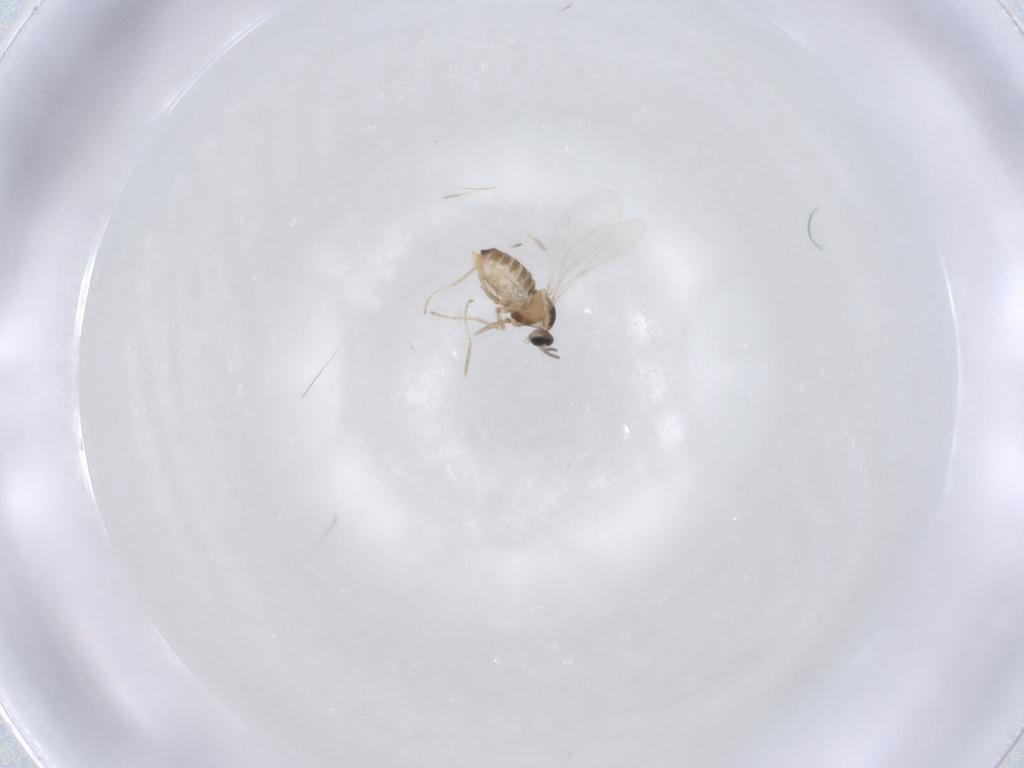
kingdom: Animalia
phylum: Arthropoda
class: Insecta
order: Diptera
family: Cecidomyiidae
